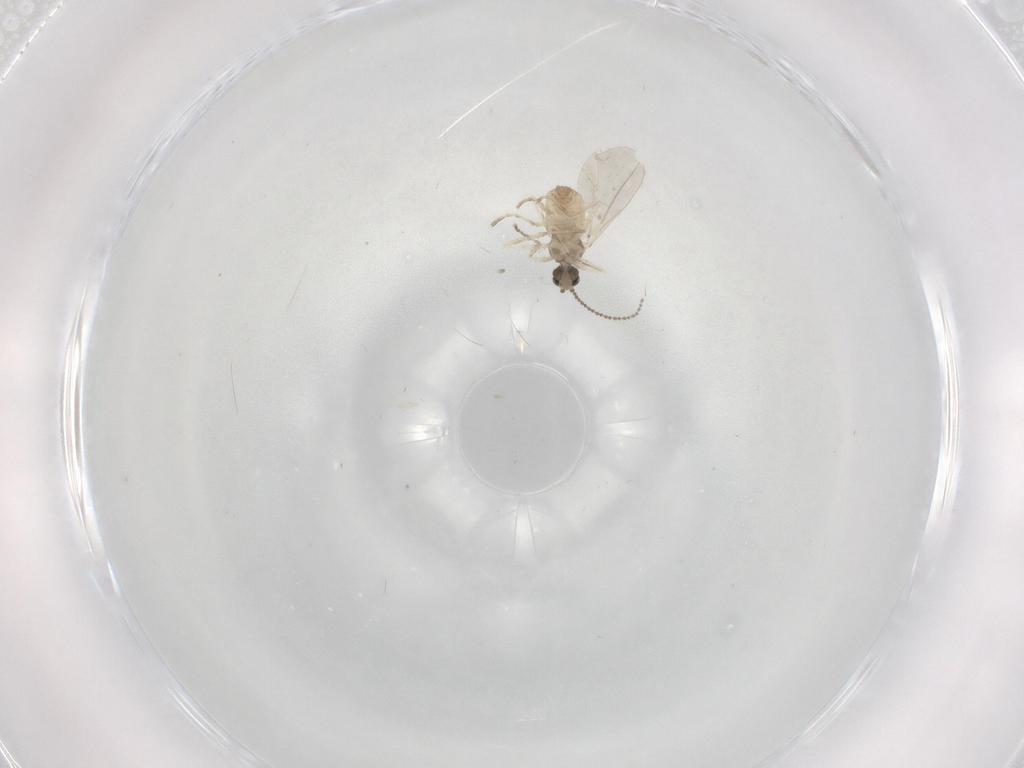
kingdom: Animalia
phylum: Arthropoda
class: Insecta
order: Diptera
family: Cecidomyiidae
